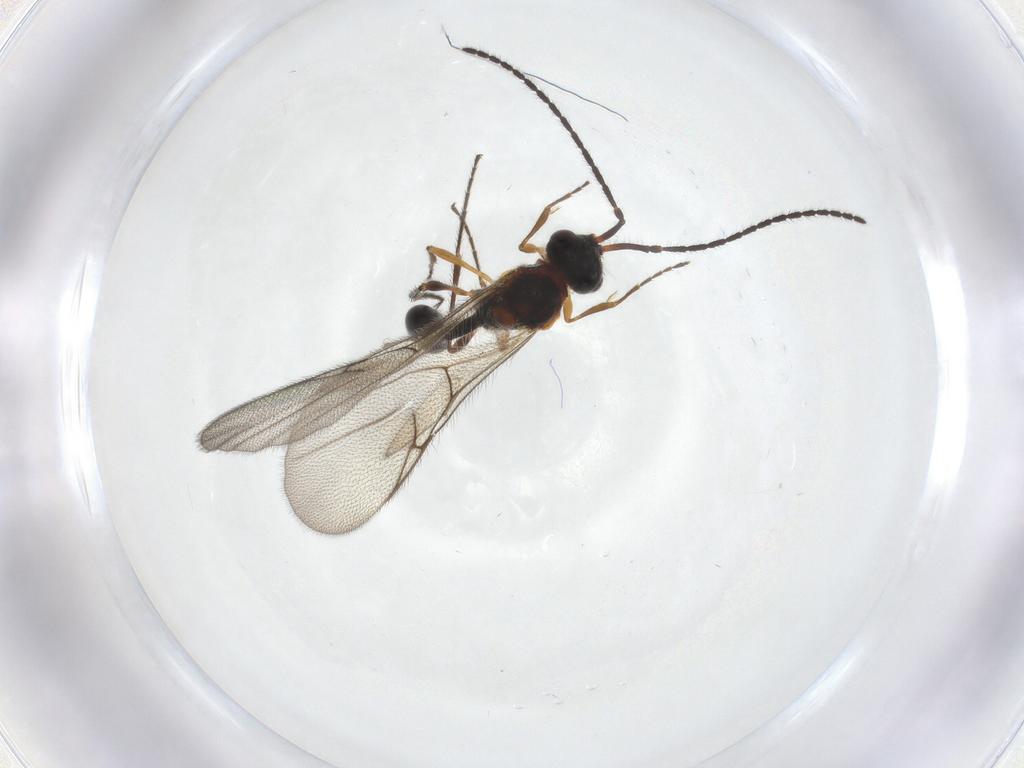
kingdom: Animalia
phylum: Arthropoda
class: Insecta
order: Hymenoptera
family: Diapriidae
